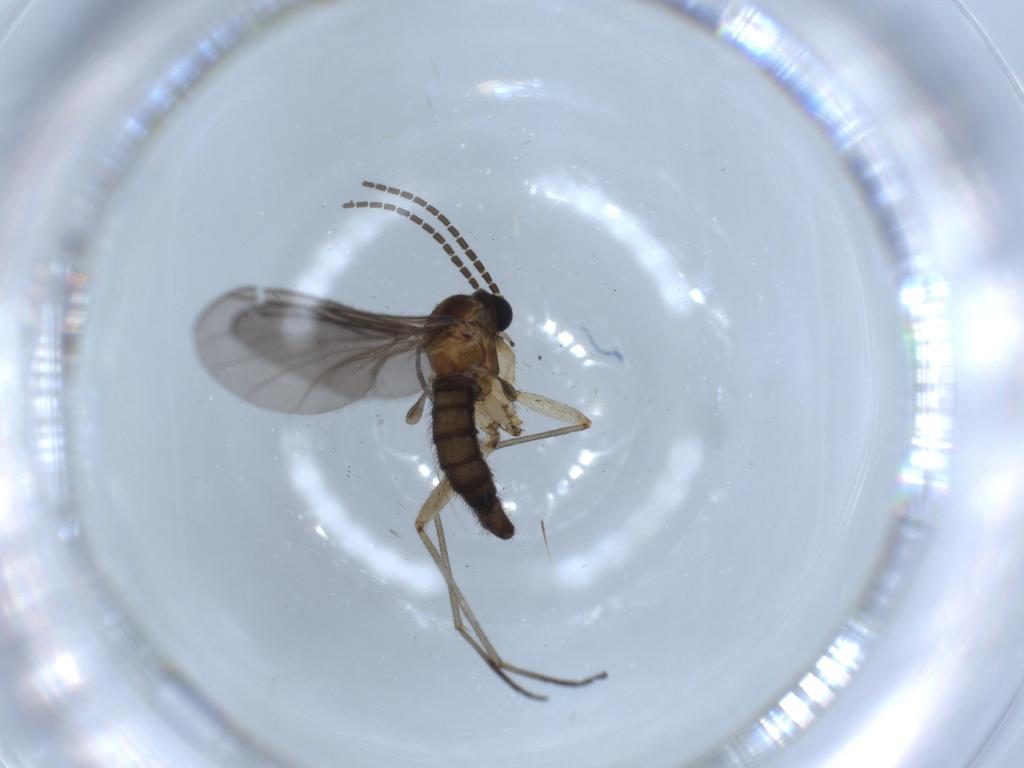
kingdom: Animalia
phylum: Arthropoda
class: Insecta
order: Diptera
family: Sciaridae
